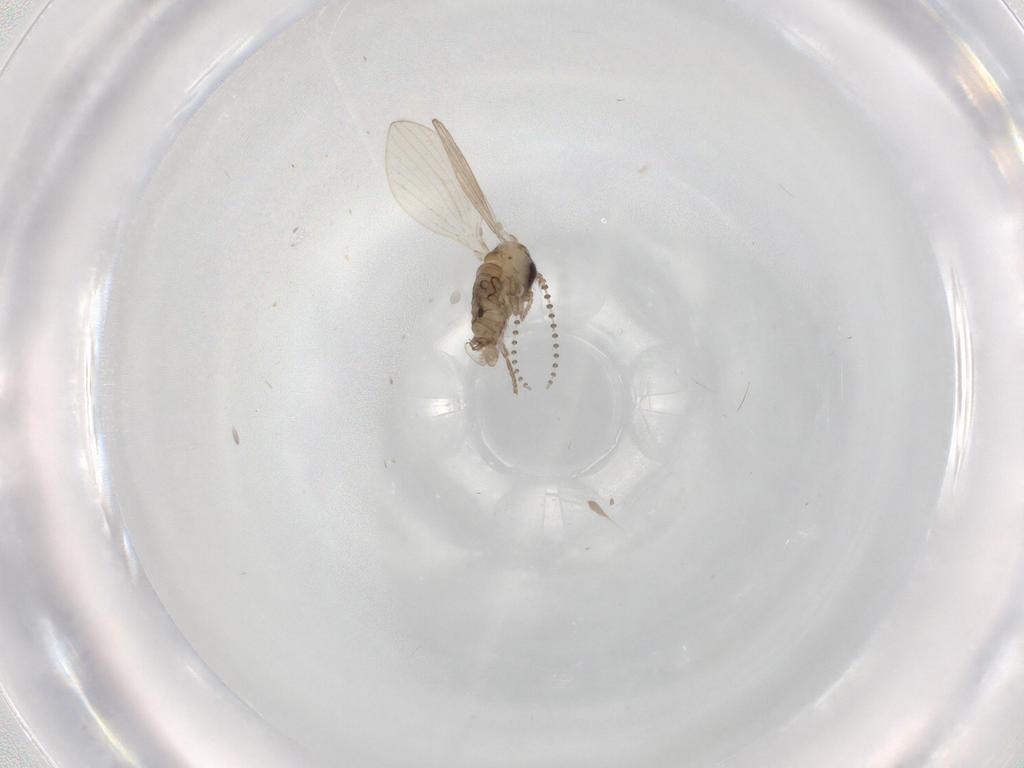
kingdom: Animalia
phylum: Arthropoda
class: Insecta
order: Diptera
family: Psychodidae
